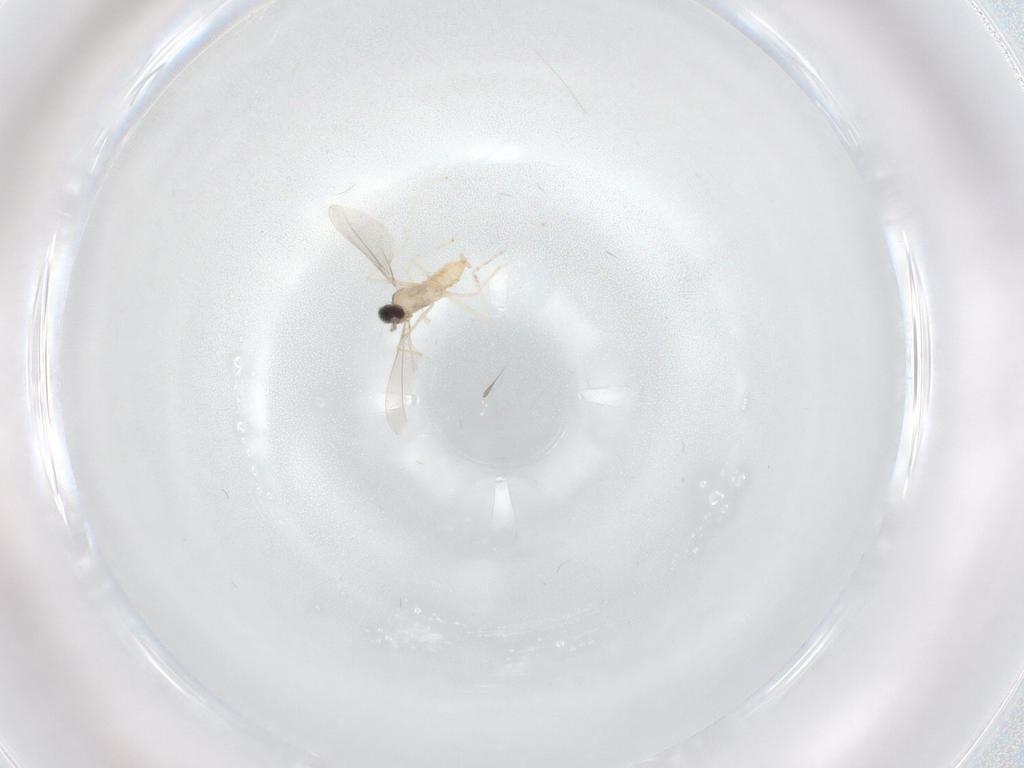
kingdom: Animalia
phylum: Arthropoda
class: Insecta
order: Diptera
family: Cecidomyiidae
